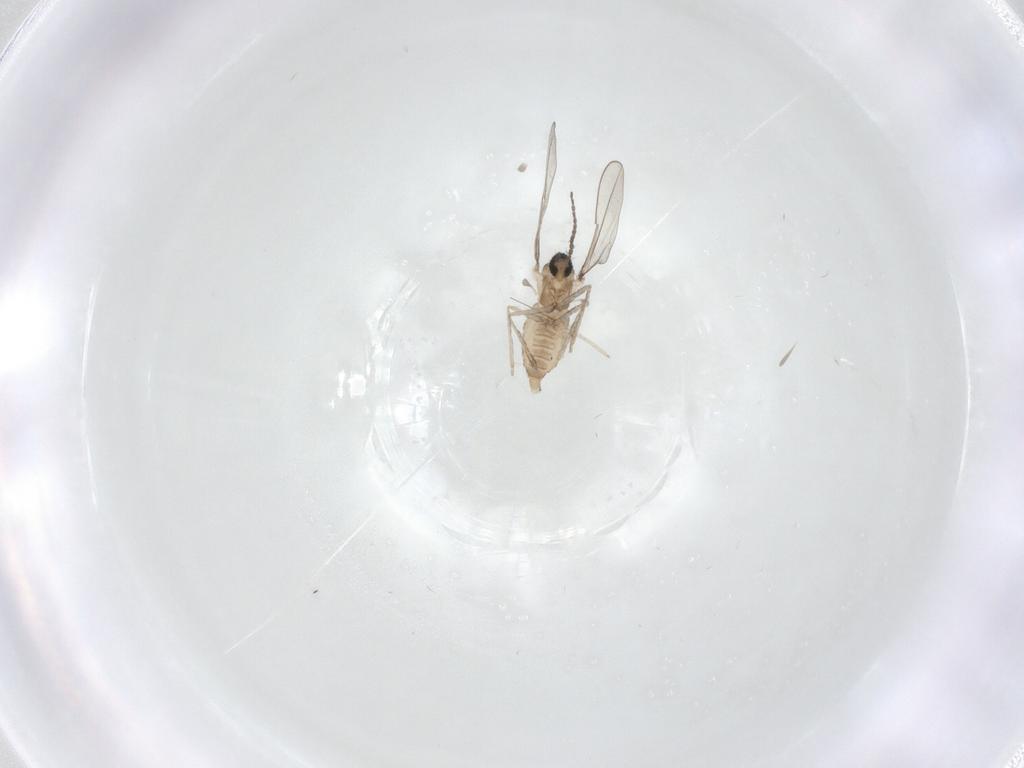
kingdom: Animalia
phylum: Arthropoda
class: Insecta
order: Diptera
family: Cecidomyiidae
